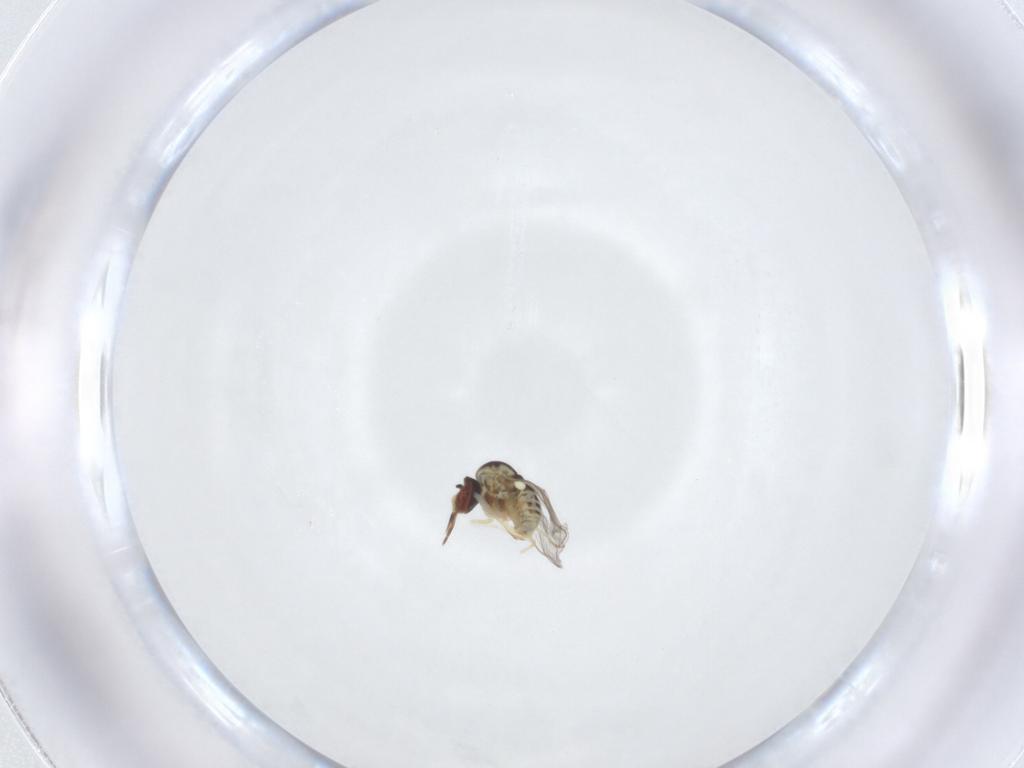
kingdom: Animalia
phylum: Arthropoda
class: Insecta
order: Diptera
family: Mythicomyiidae
